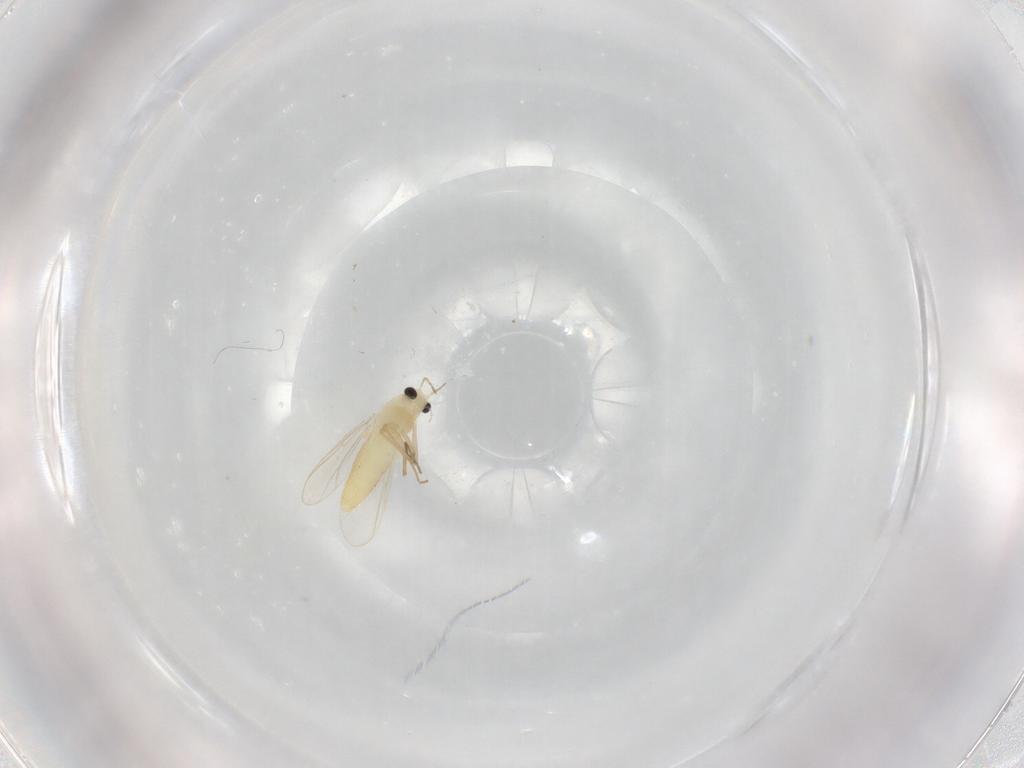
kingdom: Animalia
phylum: Arthropoda
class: Insecta
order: Diptera
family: Chironomidae
